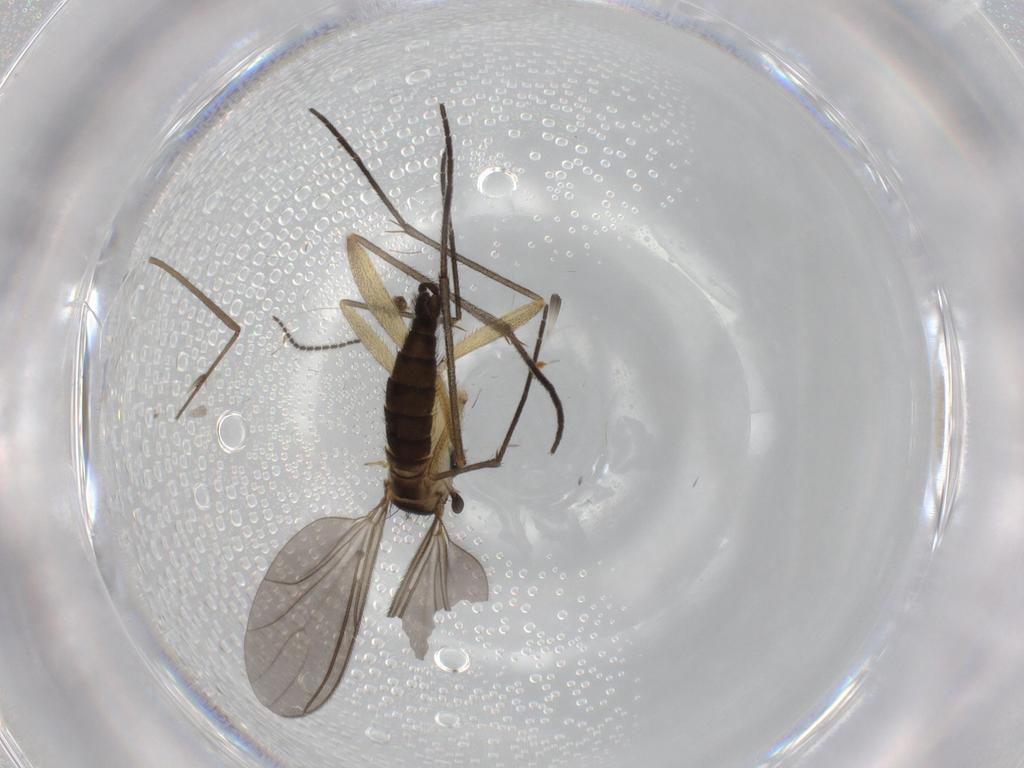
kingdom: Animalia
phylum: Arthropoda
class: Insecta
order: Diptera
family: Sciaridae
